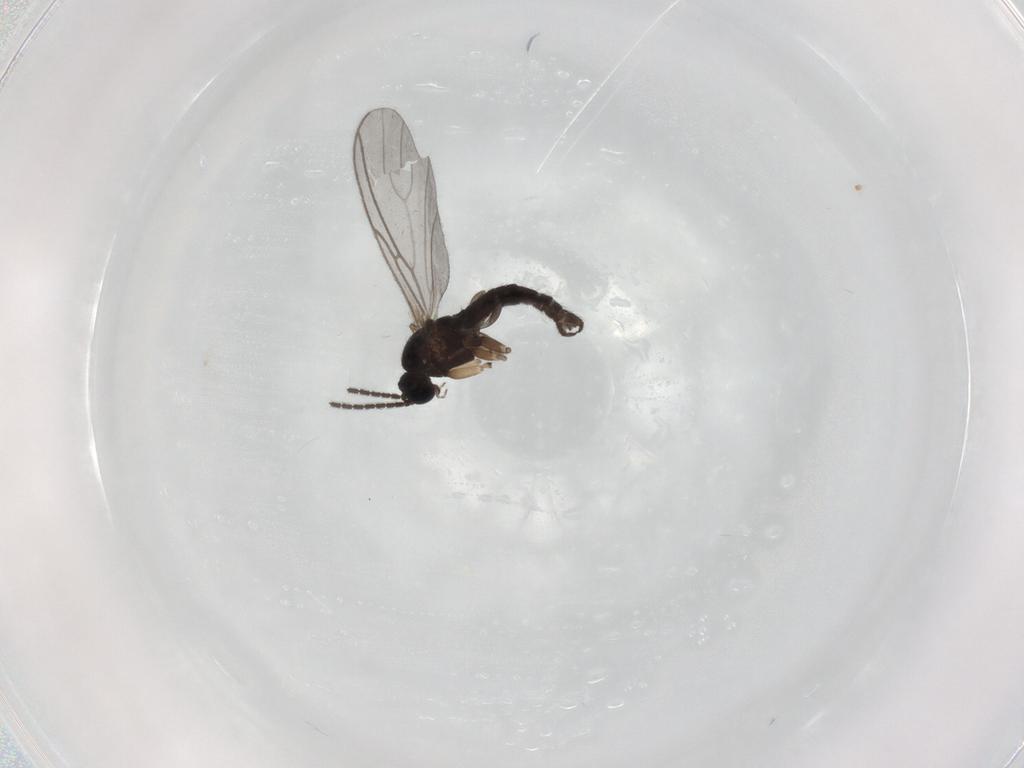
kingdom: Animalia
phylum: Arthropoda
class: Insecta
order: Diptera
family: Sciaridae
